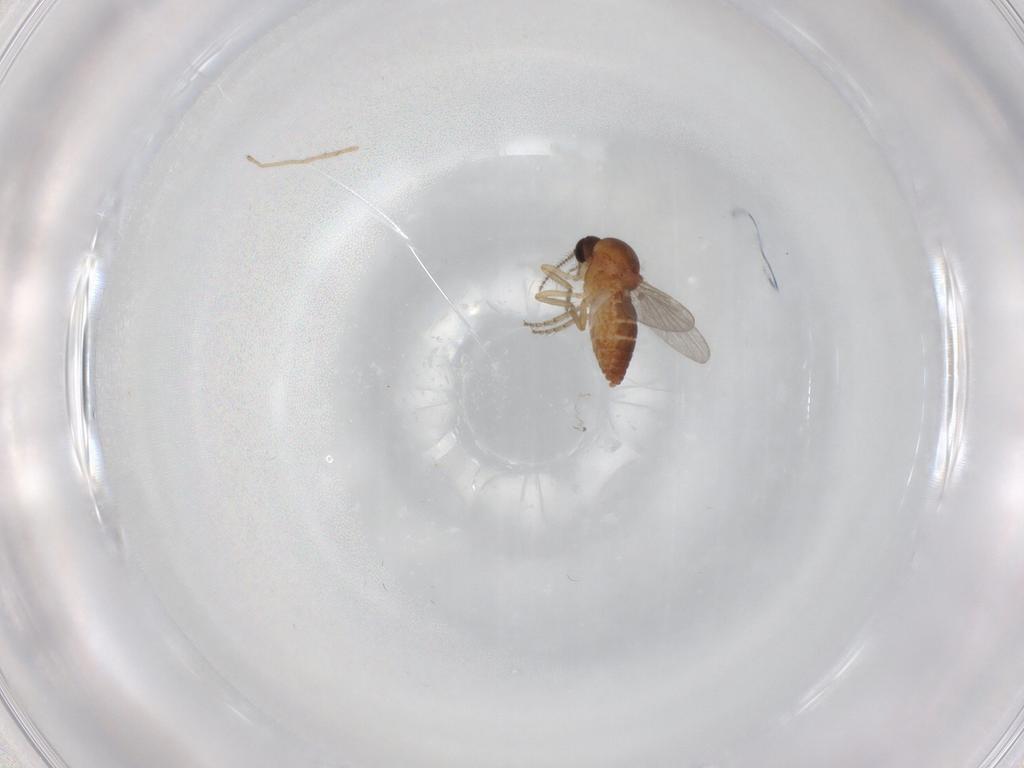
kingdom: Animalia
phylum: Arthropoda
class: Insecta
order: Diptera
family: Ceratopogonidae
